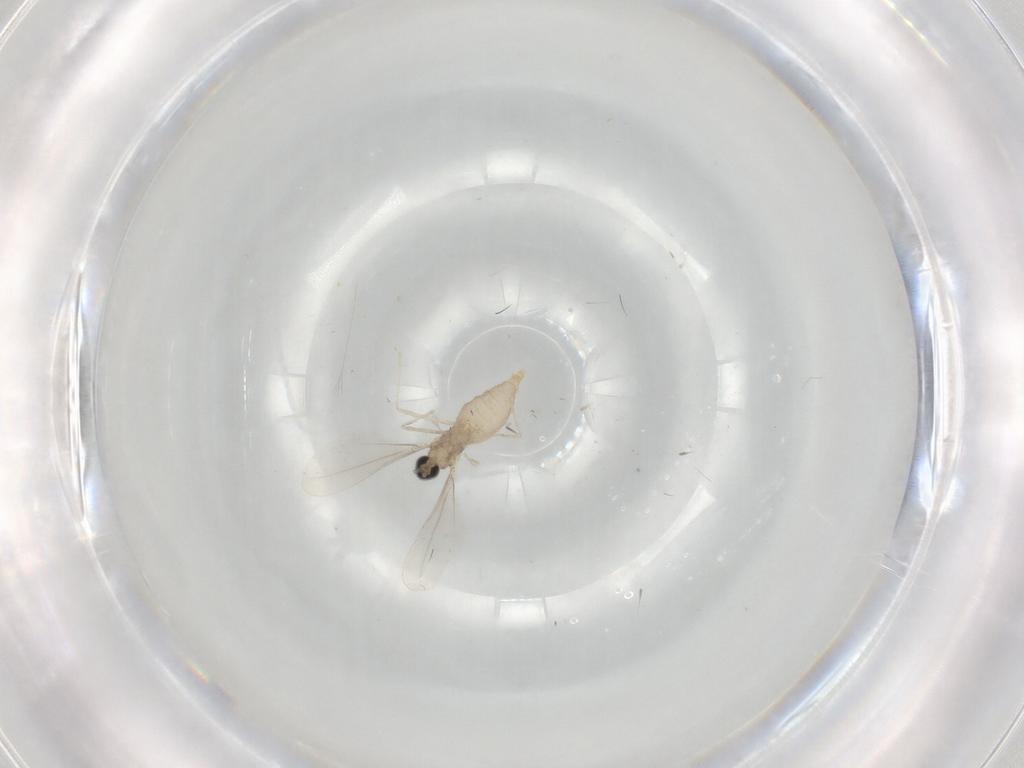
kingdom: Animalia
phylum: Arthropoda
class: Insecta
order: Diptera
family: Cecidomyiidae
